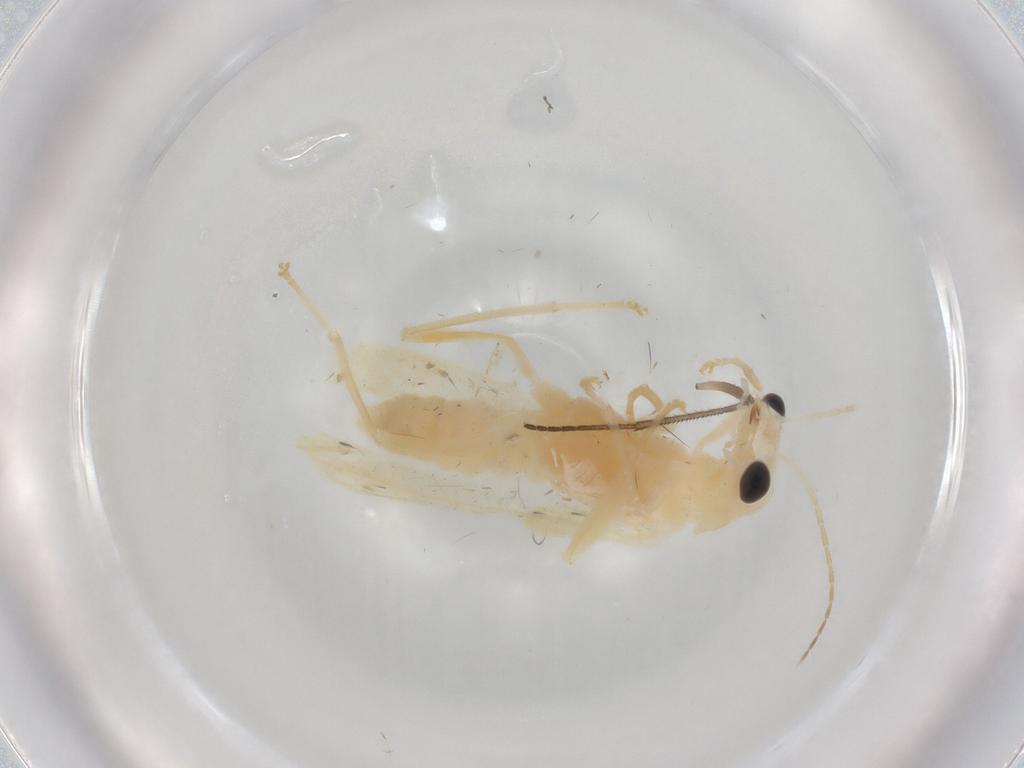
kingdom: Animalia
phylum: Arthropoda
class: Insecta
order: Coleoptera
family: Cantharidae
